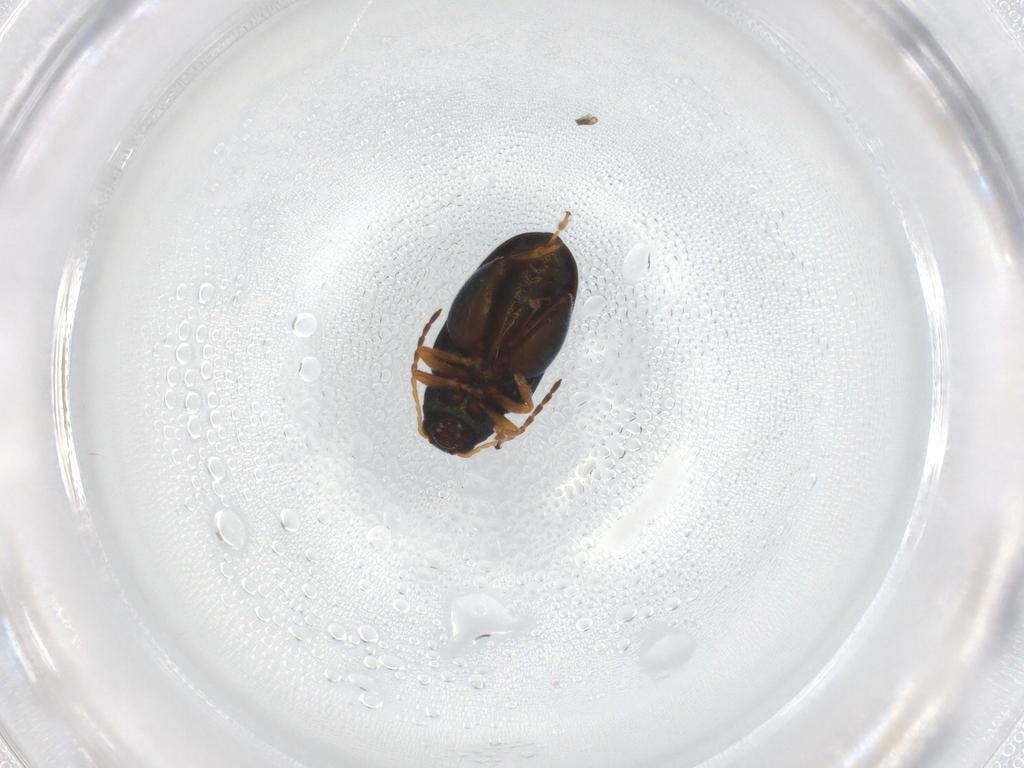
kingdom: Animalia
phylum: Arthropoda
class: Insecta
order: Coleoptera
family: Chrysomelidae
